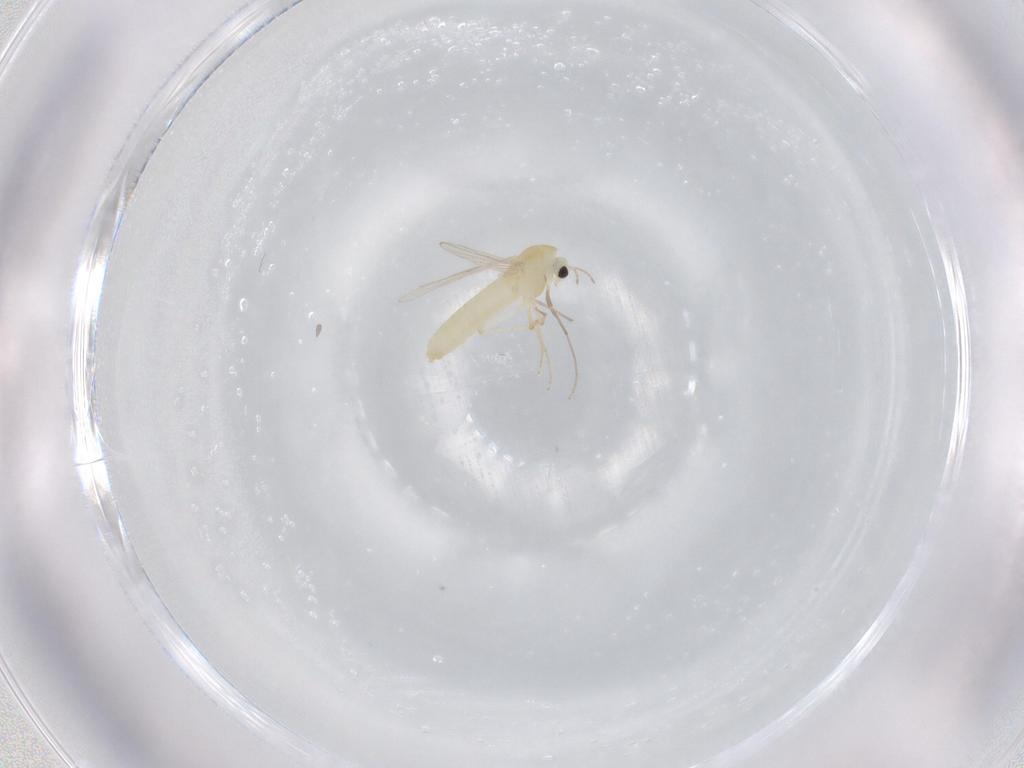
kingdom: Animalia
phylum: Arthropoda
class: Insecta
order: Diptera
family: Chironomidae
